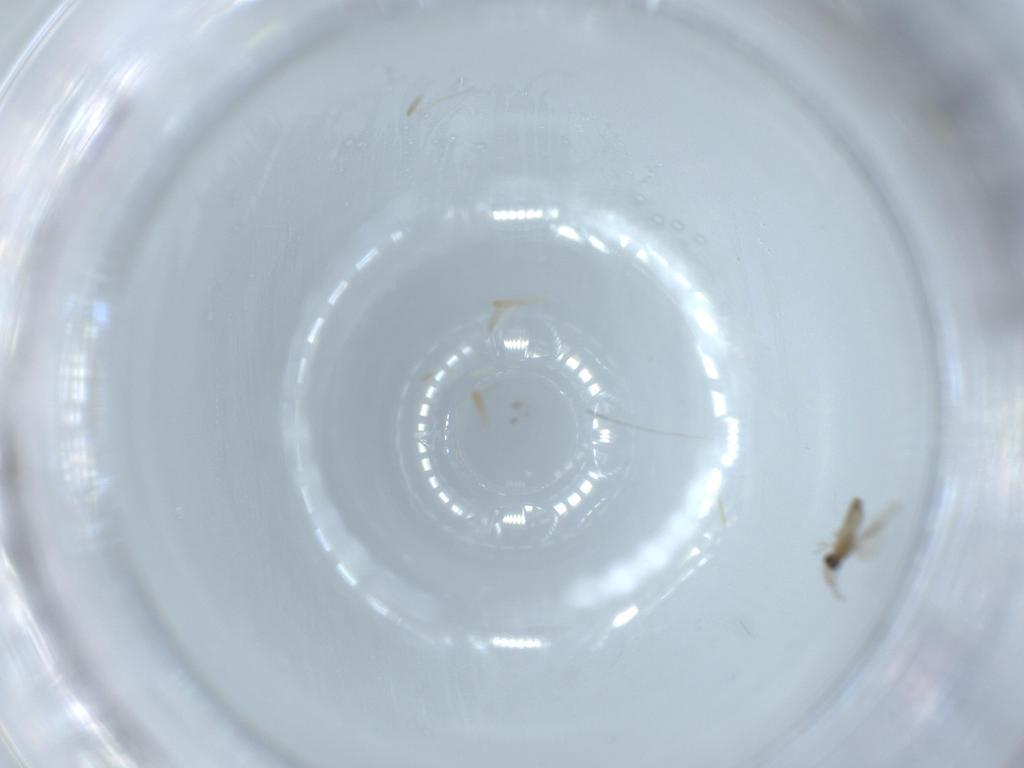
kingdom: Animalia
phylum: Arthropoda
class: Insecta
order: Diptera
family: Cecidomyiidae
